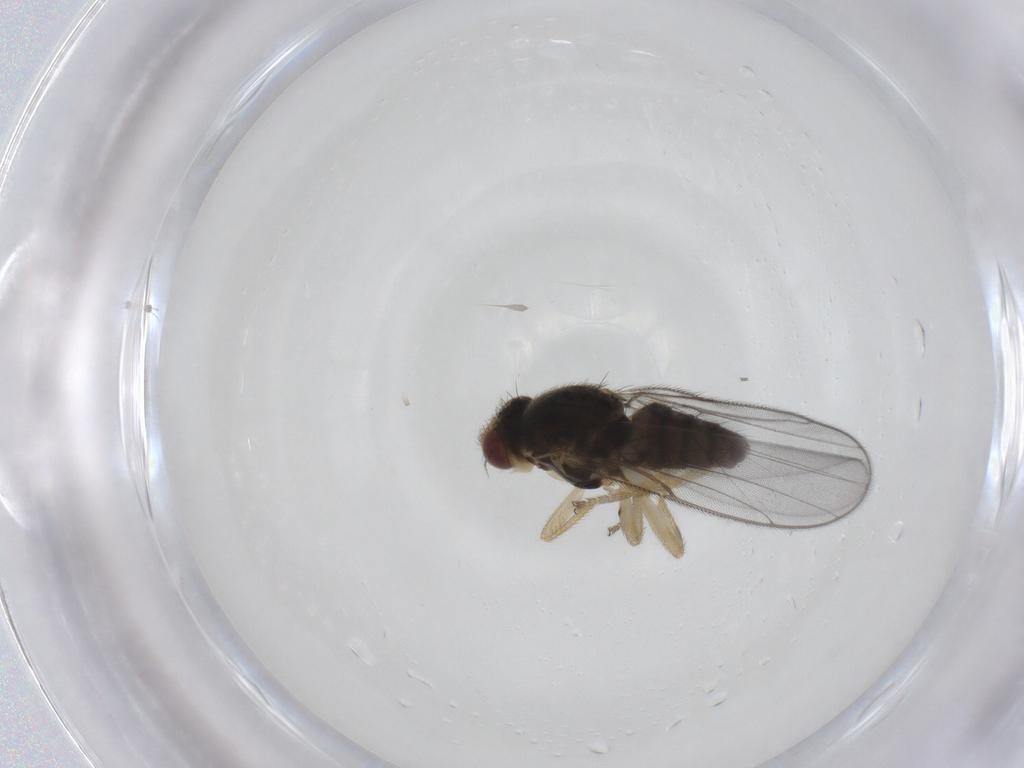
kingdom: Animalia
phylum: Arthropoda
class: Insecta
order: Diptera
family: Chloropidae
